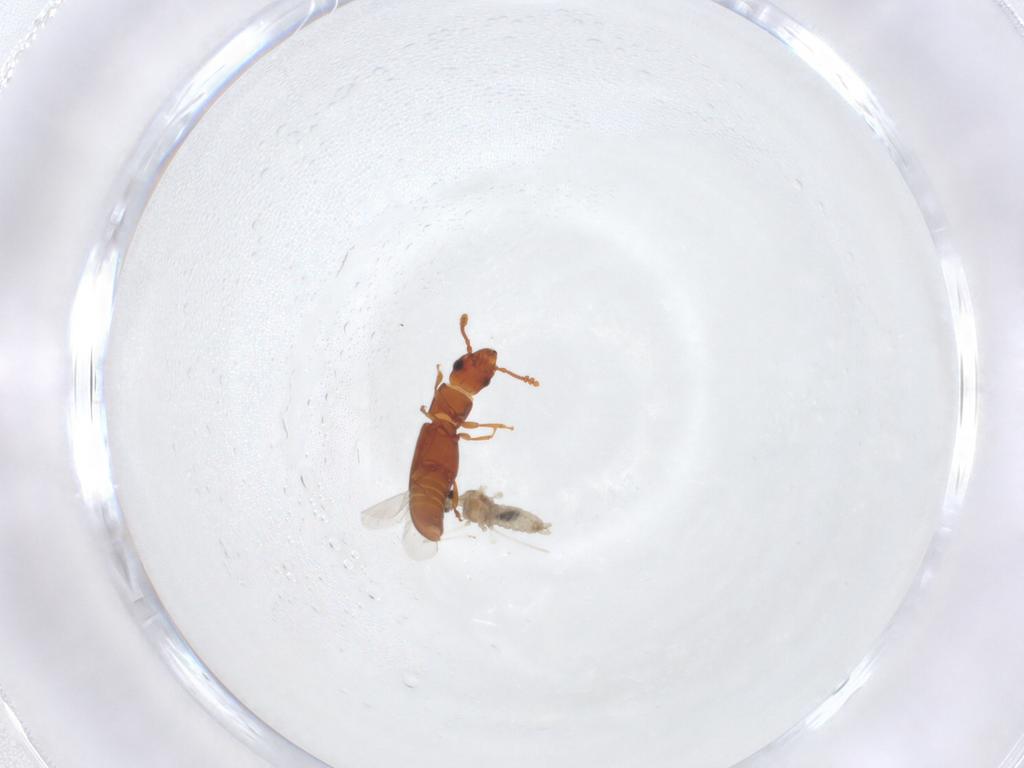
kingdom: Animalia
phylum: Arthropoda
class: Insecta
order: Diptera
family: Cecidomyiidae
